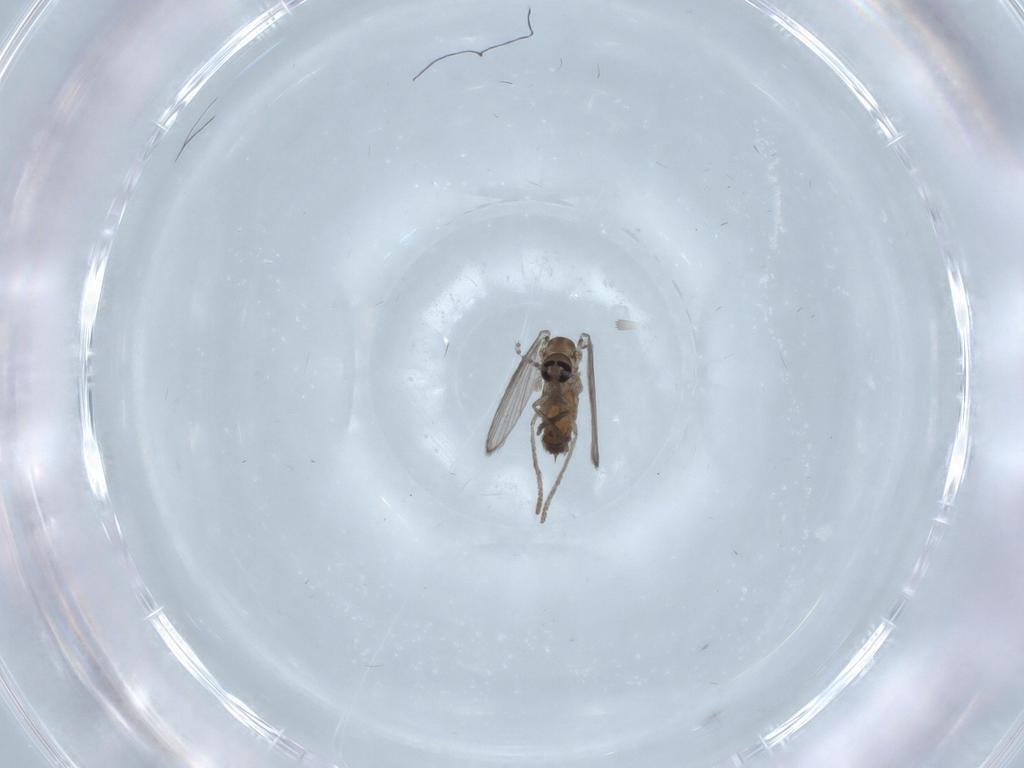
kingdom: Animalia
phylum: Arthropoda
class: Insecta
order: Diptera
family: Psychodidae
